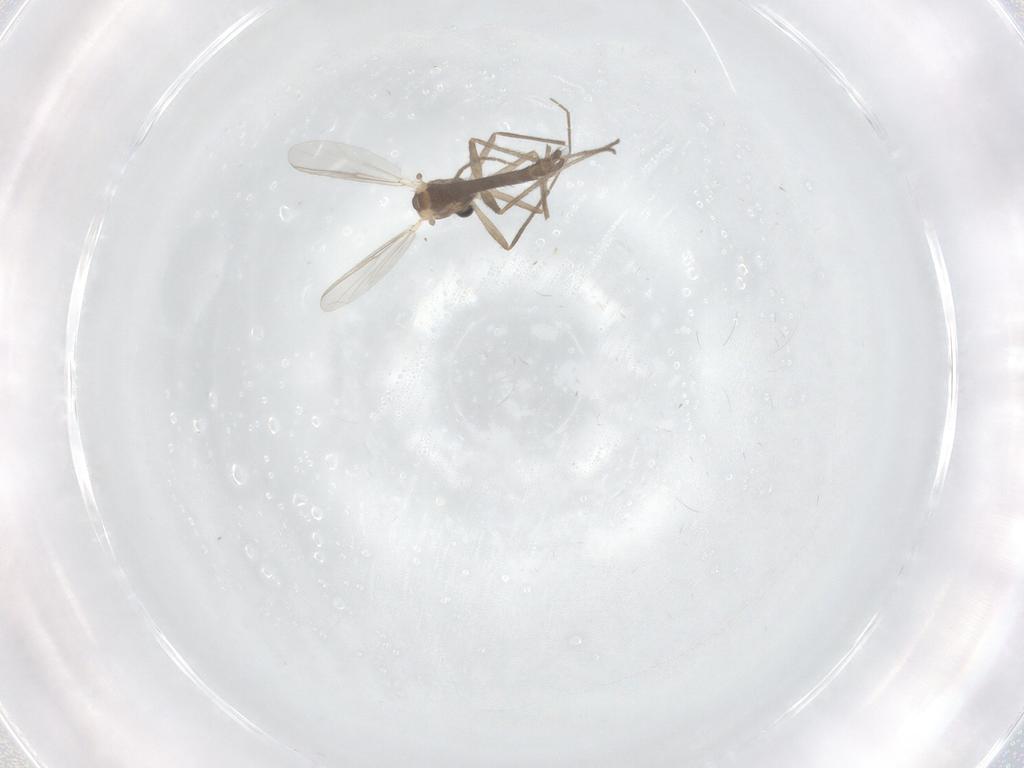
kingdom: Animalia
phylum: Arthropoda
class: Insecta
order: Diptera
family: Chironomidae
